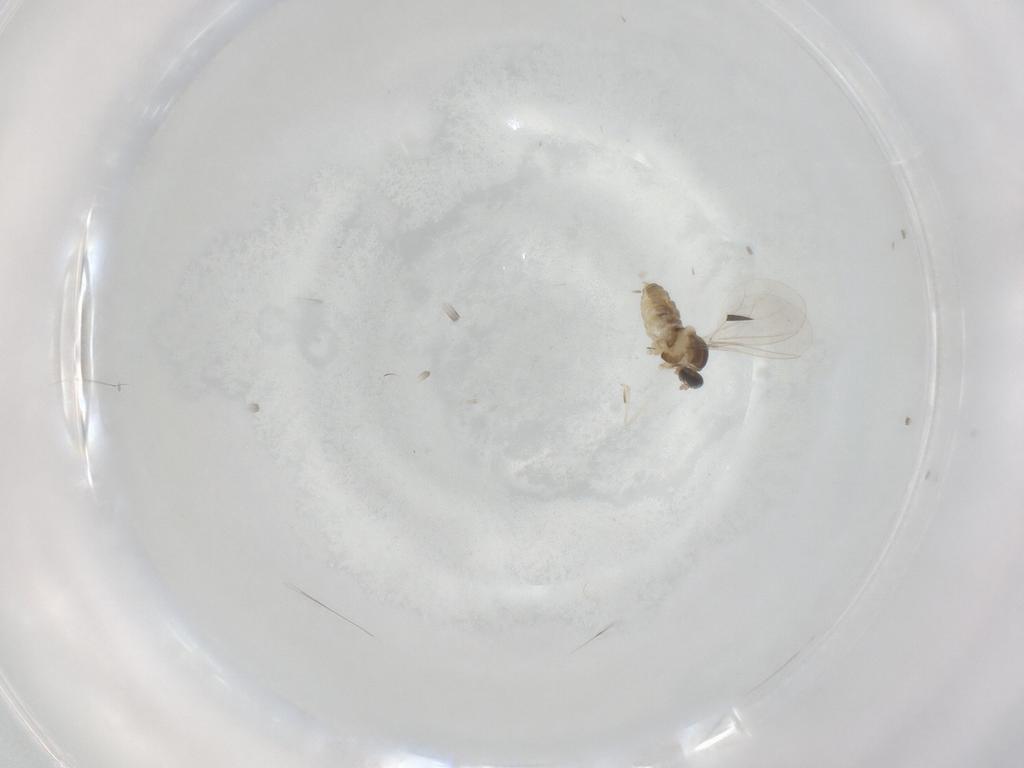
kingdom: Animalia
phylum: Arthropoda
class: Insecta
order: Diptera
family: Cecidomyiidae
